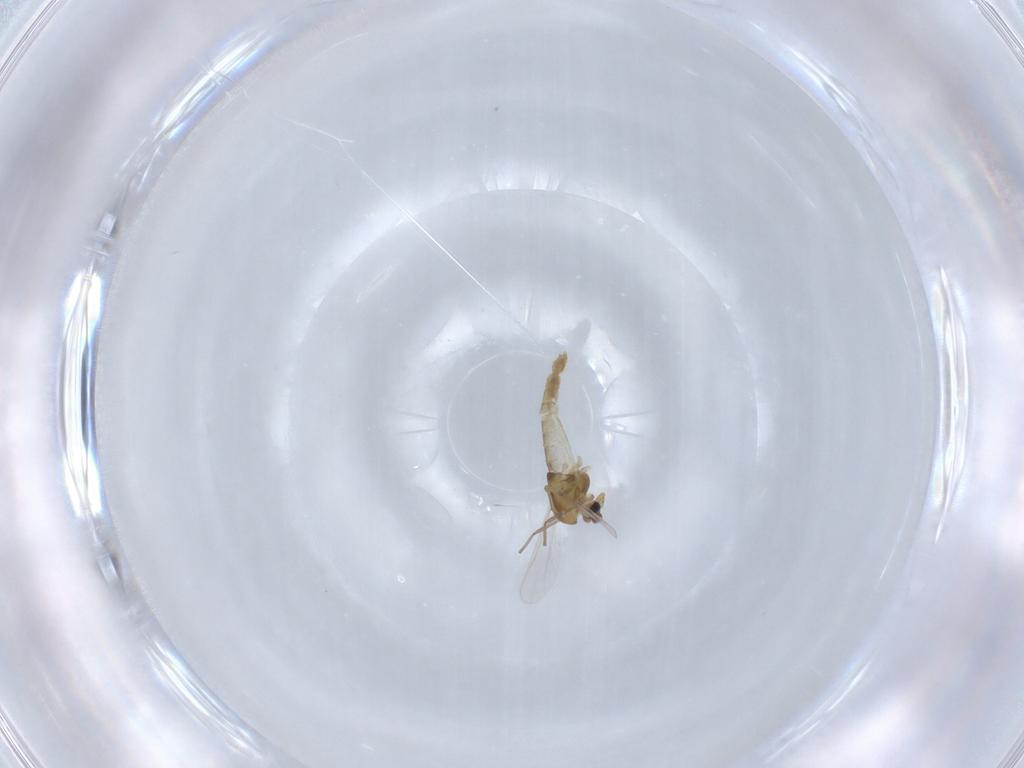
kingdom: Animalia
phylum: Arthropoda
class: Insecta
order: Diptera
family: Chironomidae
